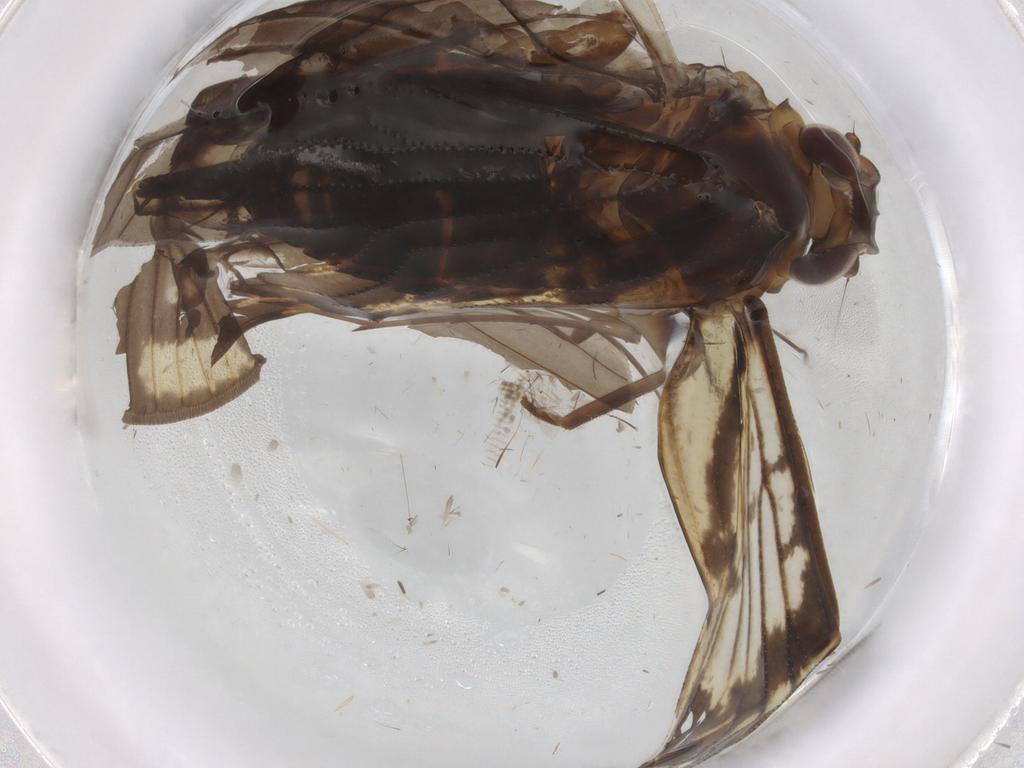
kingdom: Animalia
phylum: Arthropoda
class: Insecta
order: Hemiptera
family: Cixiidae
